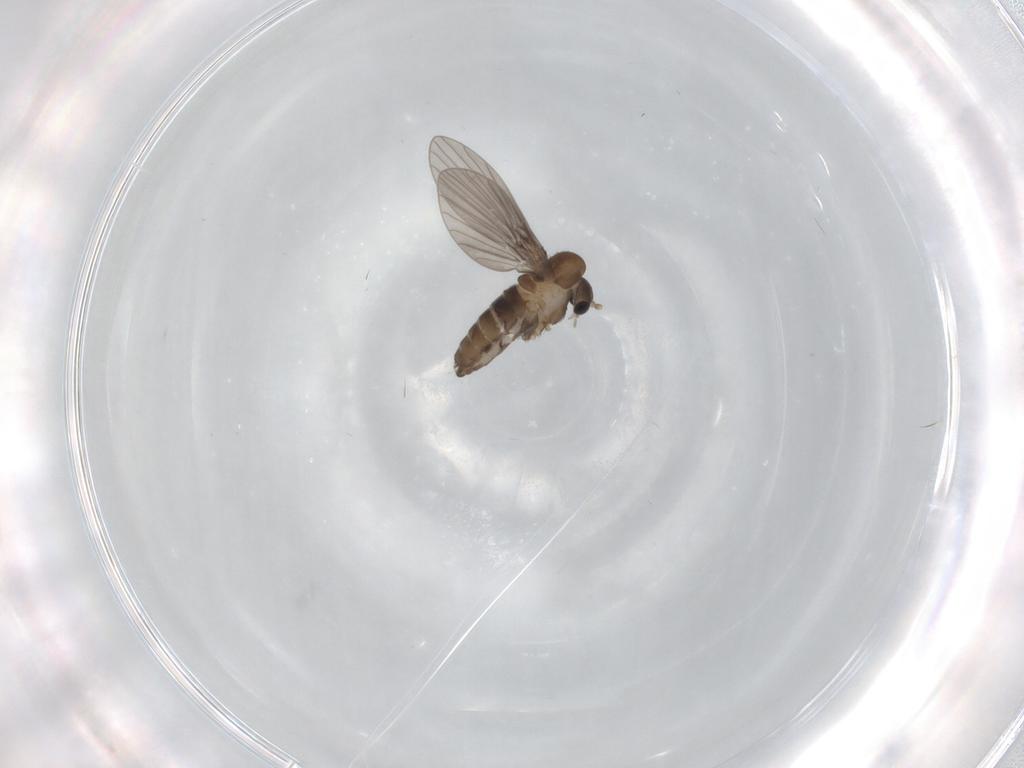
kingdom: Animalia
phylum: Arthropoda
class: Insecta
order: Diptera
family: Psychodidae
